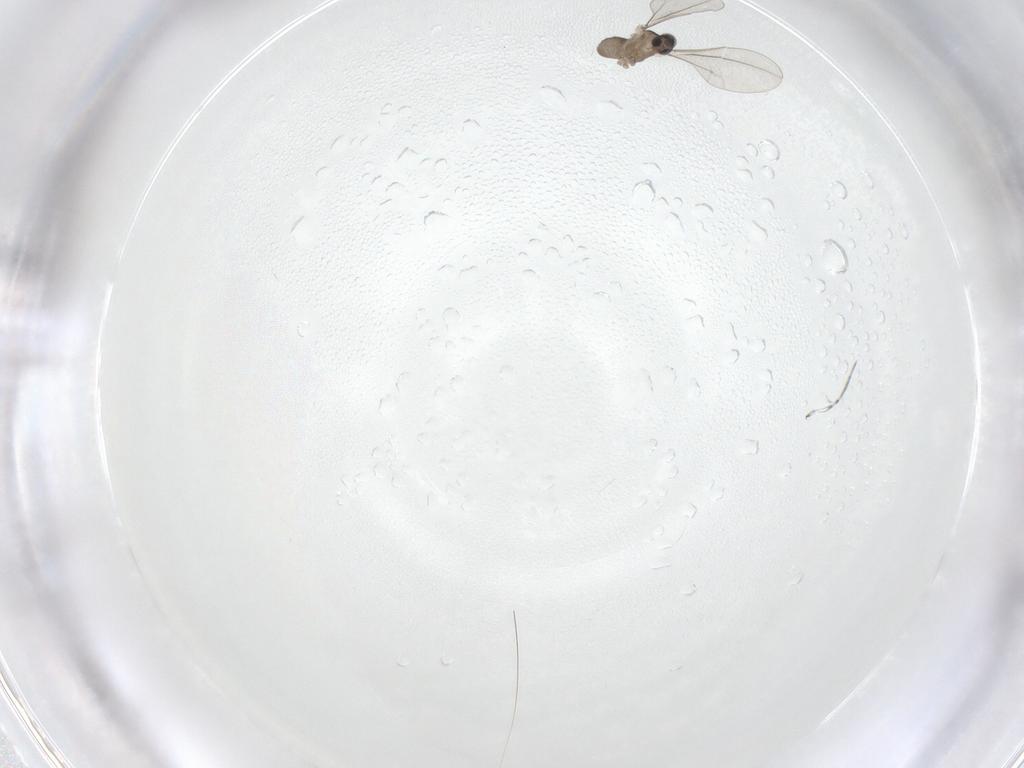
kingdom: Animalia
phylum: Arthropoda
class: Insecta
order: Diptera
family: Cecidomyiidae
